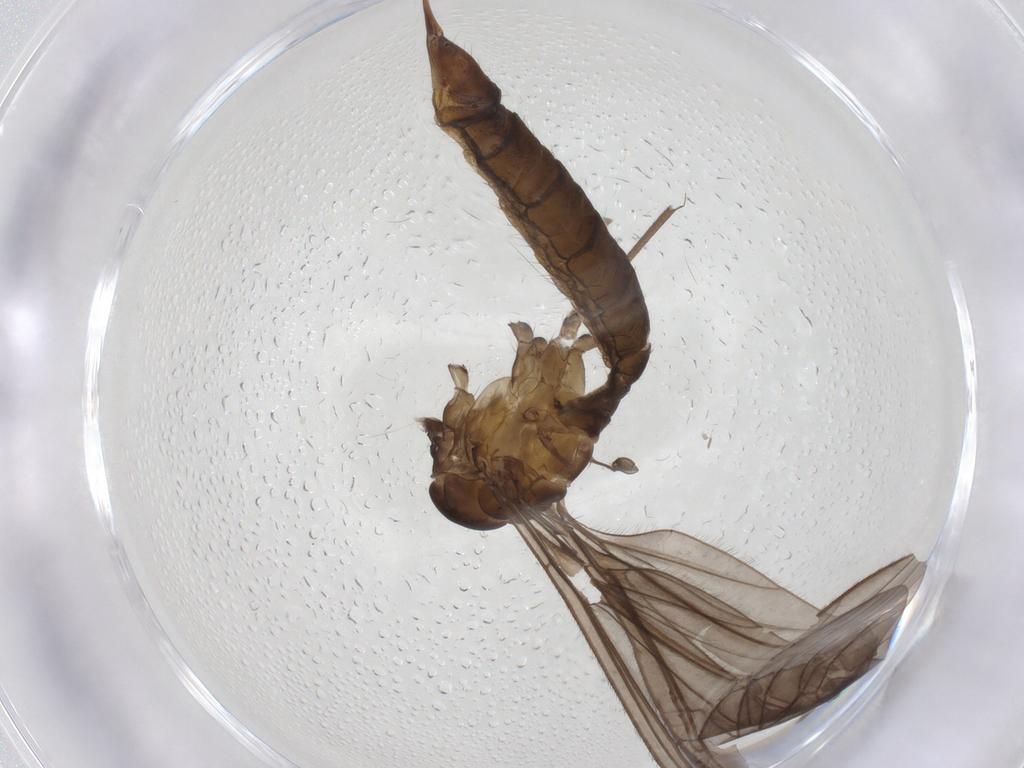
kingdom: Animalia
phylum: Arthropoda
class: Insecta
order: Diptera
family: Limoniidae
